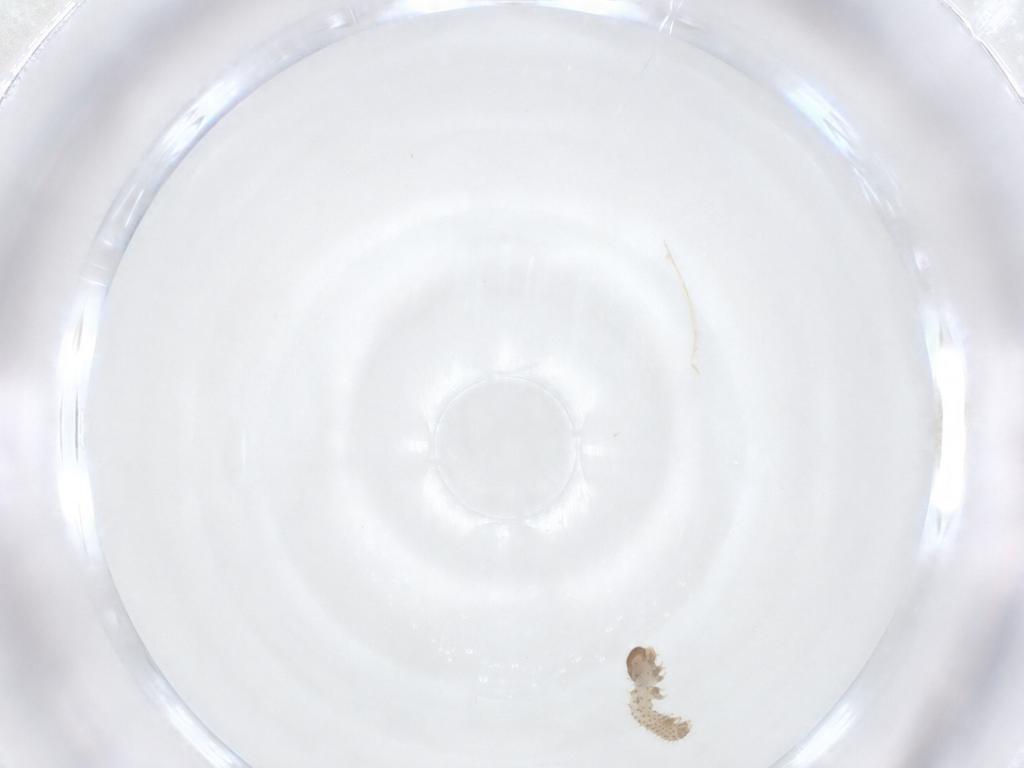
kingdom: Animalia
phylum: Arthropoda
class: Insecta
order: Lepidoptera
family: Erebidae
